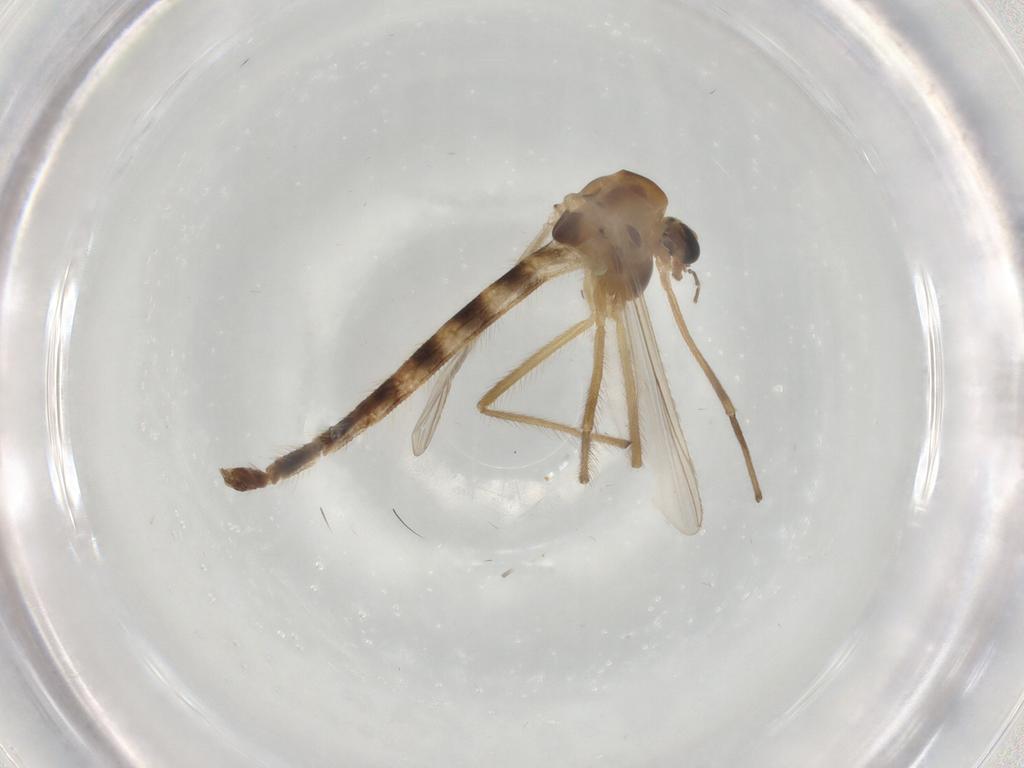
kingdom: Animalia
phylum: Arthropoda
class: Insecta
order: Diptera
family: Chironomidae
